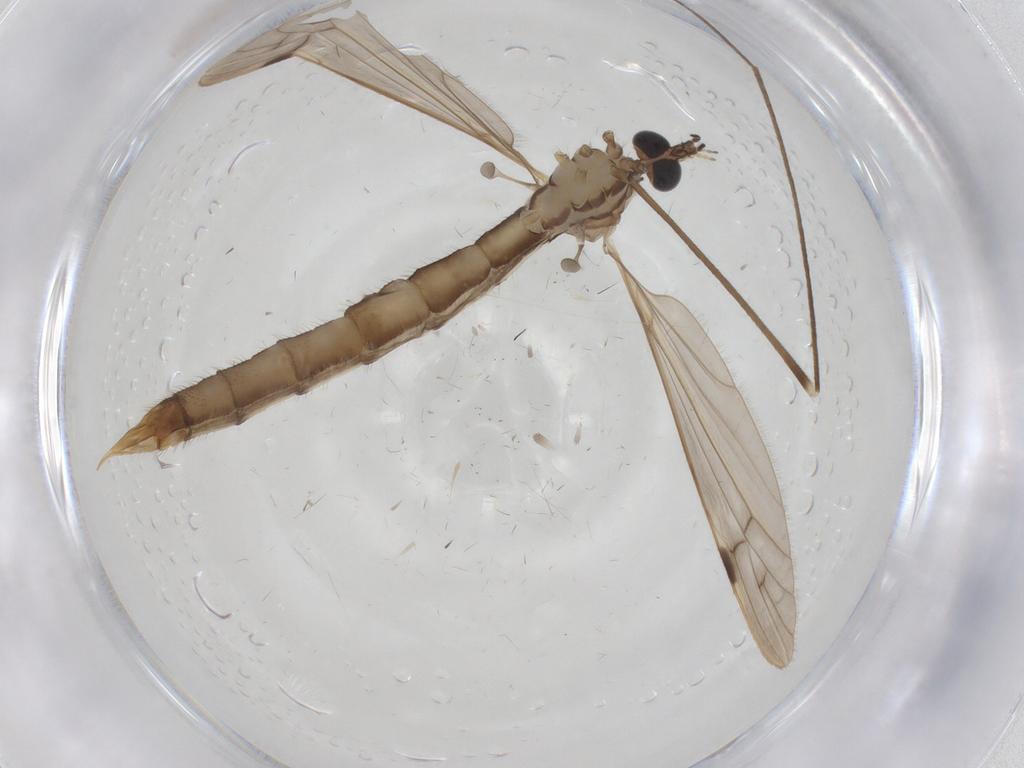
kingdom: Animalia
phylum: Arthropoda
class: Insecta
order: Diptera
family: Limoniidae
